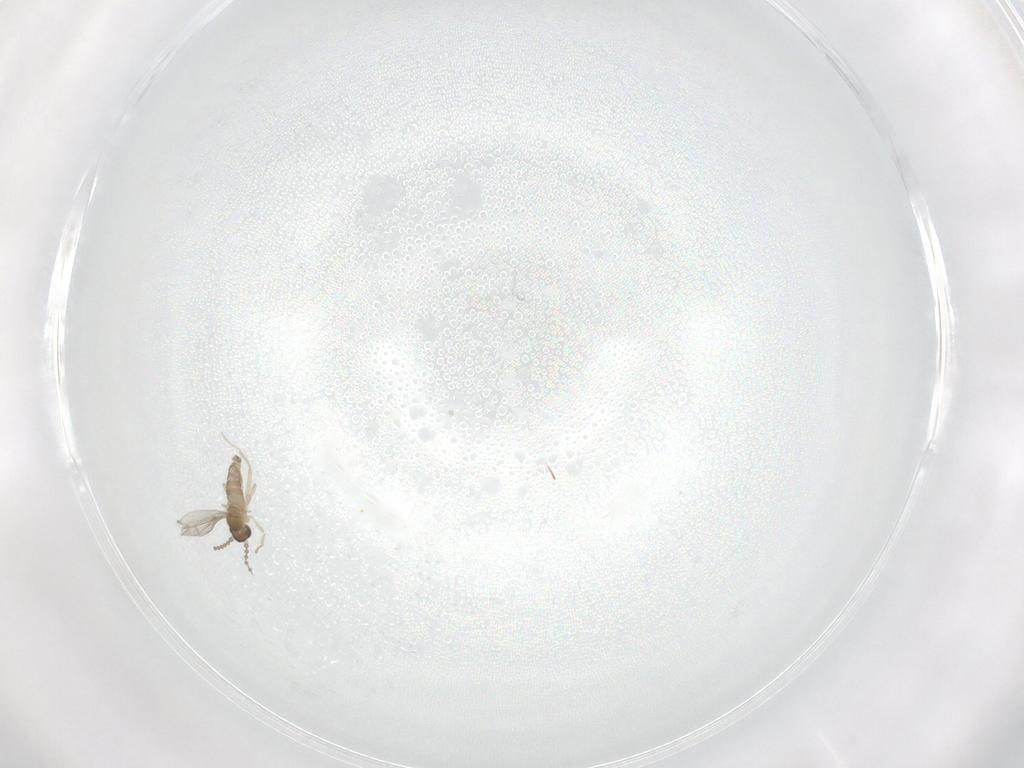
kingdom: Animalia
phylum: Arthropoda
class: Insecta
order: Diptera
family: Phoridae
